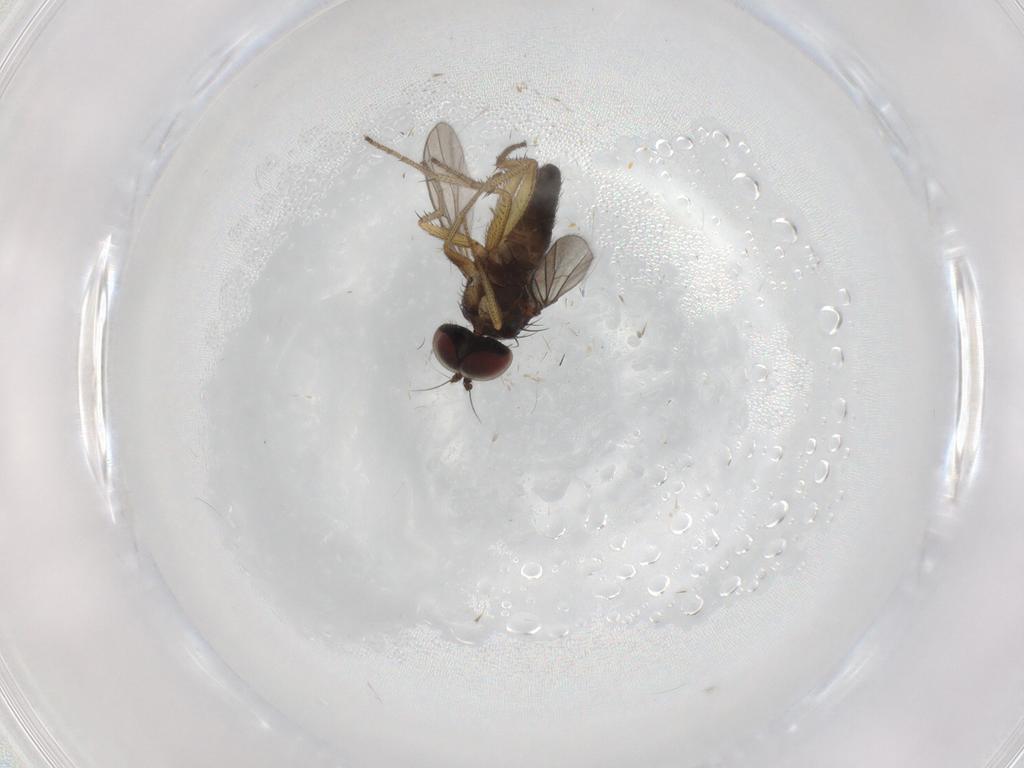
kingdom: Animalia
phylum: Arthropoda
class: Insecta
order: Diptera
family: Dolichopodidae
